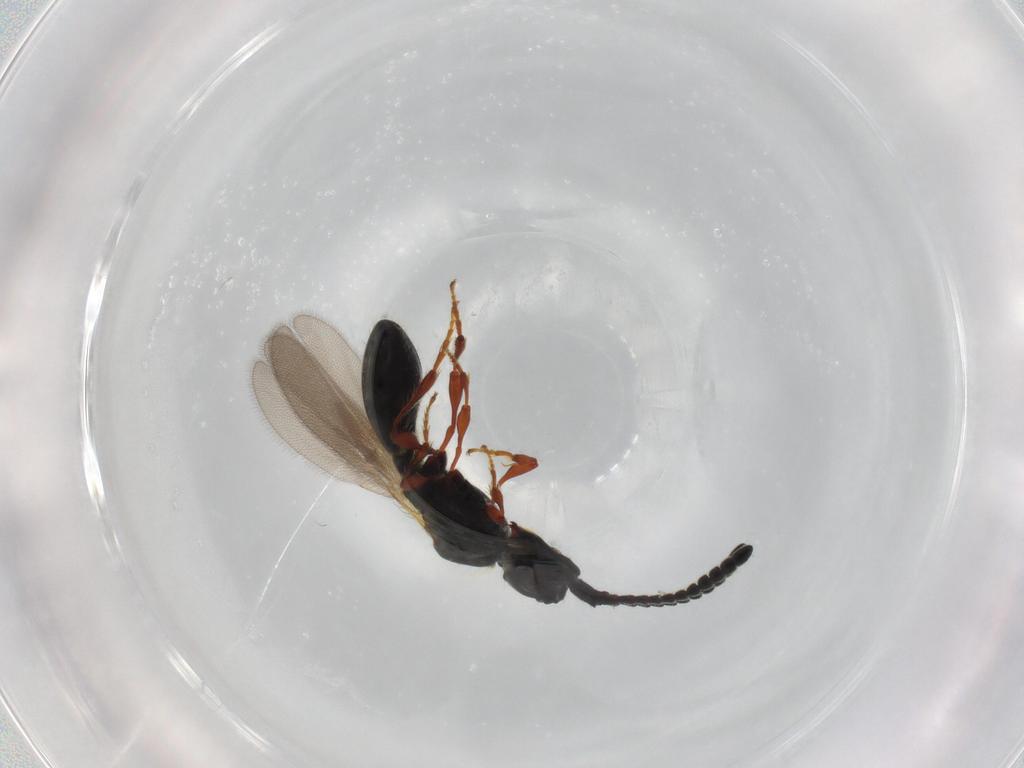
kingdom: Animalia
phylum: Arthropoda
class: Insecta
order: Hymenoptera
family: Diapriidae
